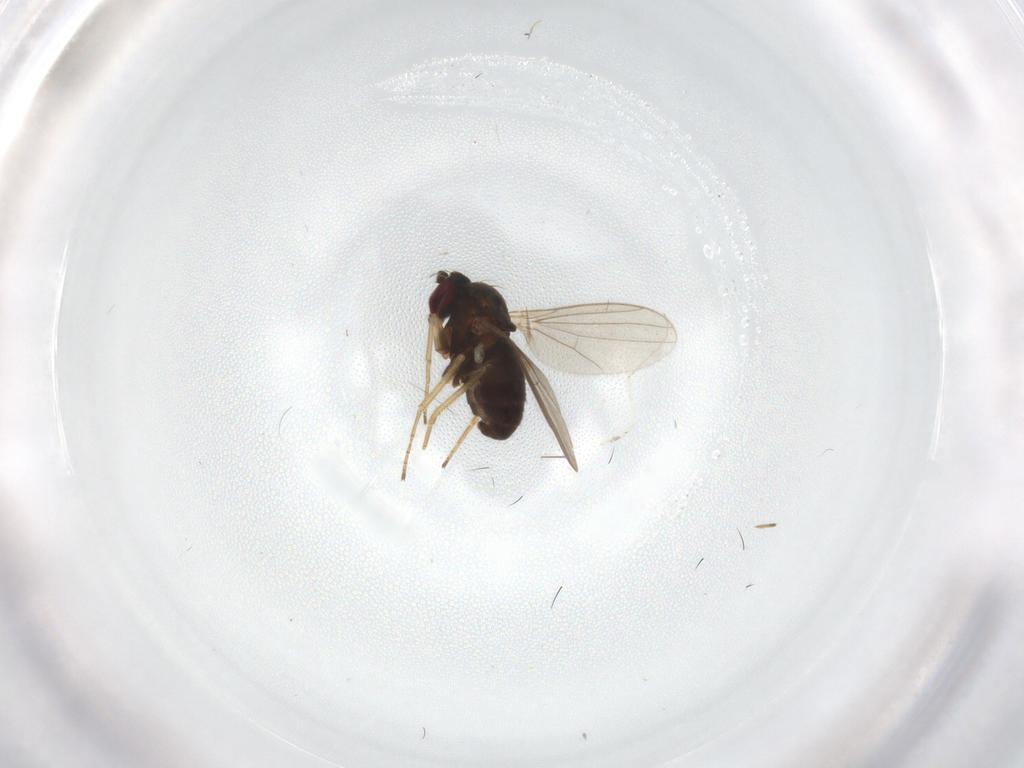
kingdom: Animalia
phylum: Arthropoda
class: Insecta
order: Diptera
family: Dolichopodidae
